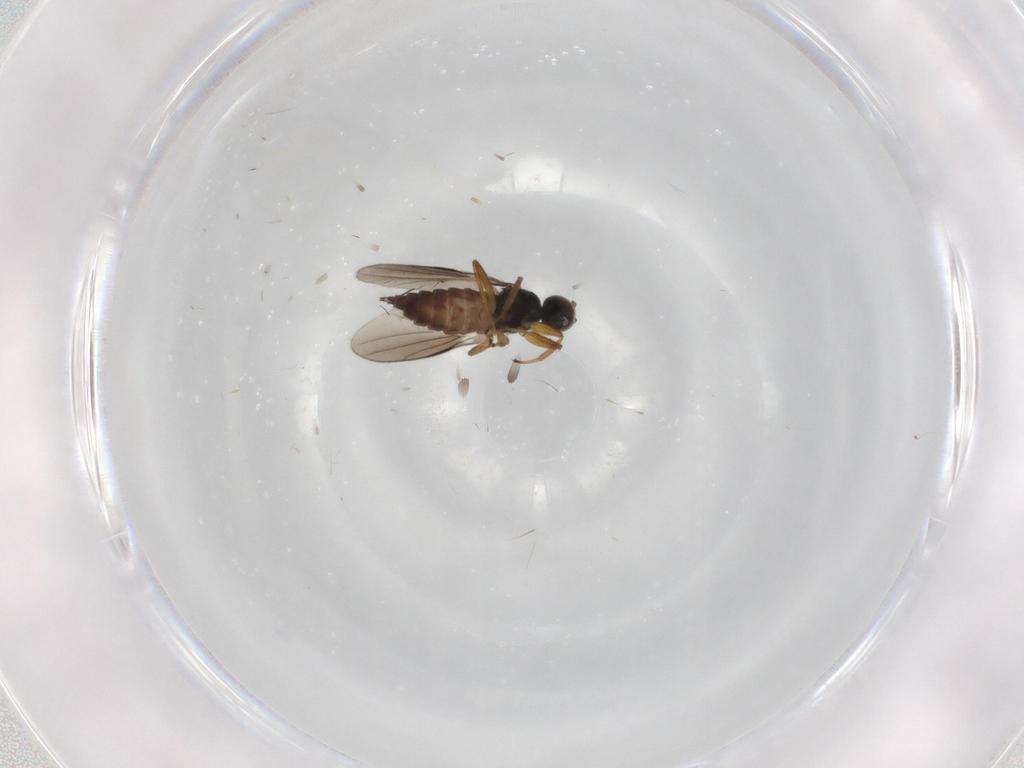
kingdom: Animalia
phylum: Arthropoda
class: Insecta
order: Diptera
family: Hybotidae
